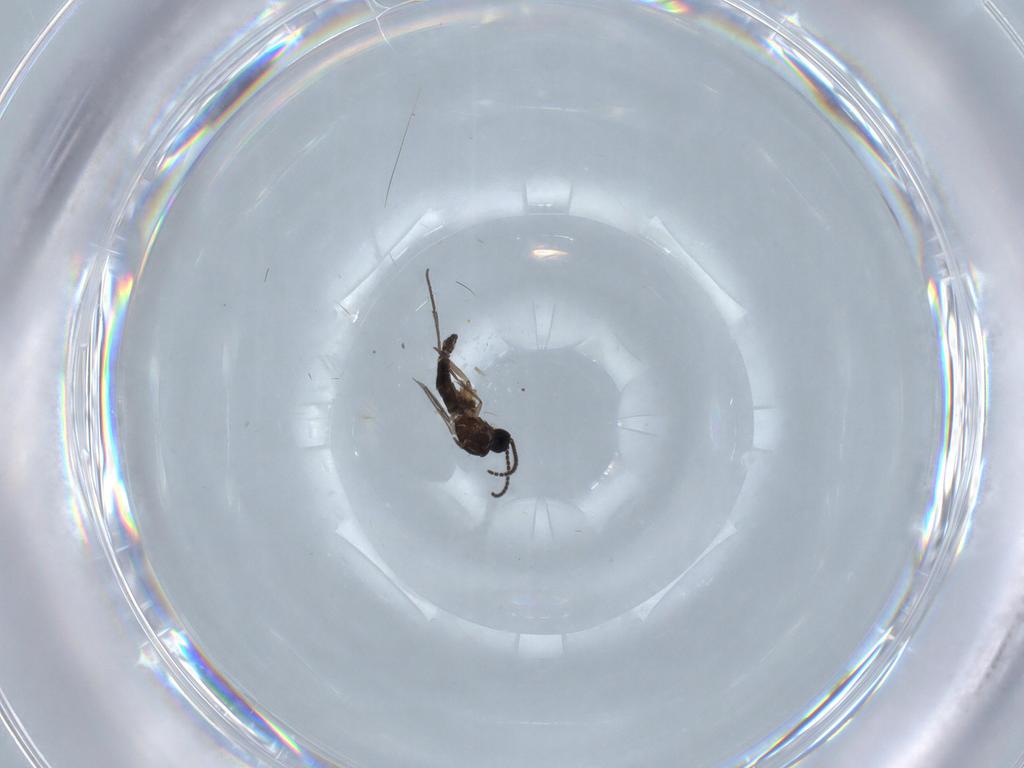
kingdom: Animalia
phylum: Arthropoda
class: Insecta
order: Diptera
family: Sciaridae
